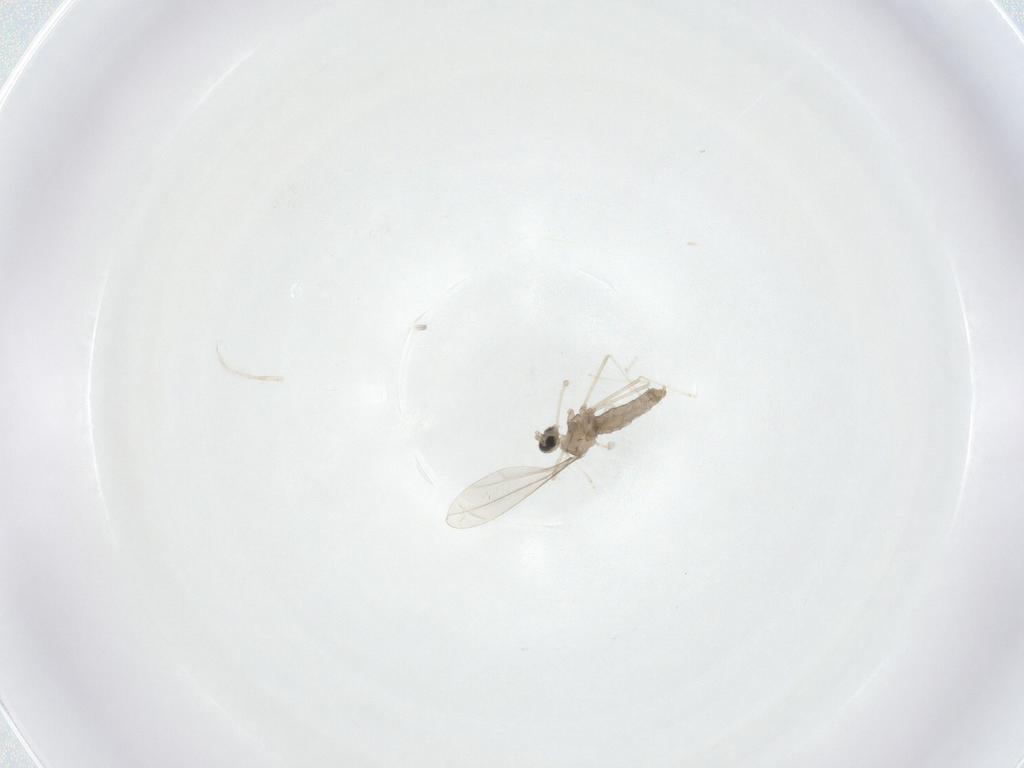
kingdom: Animalia
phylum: Arthropoda
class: Insecta
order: Diptera
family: Cecidomyiidae
